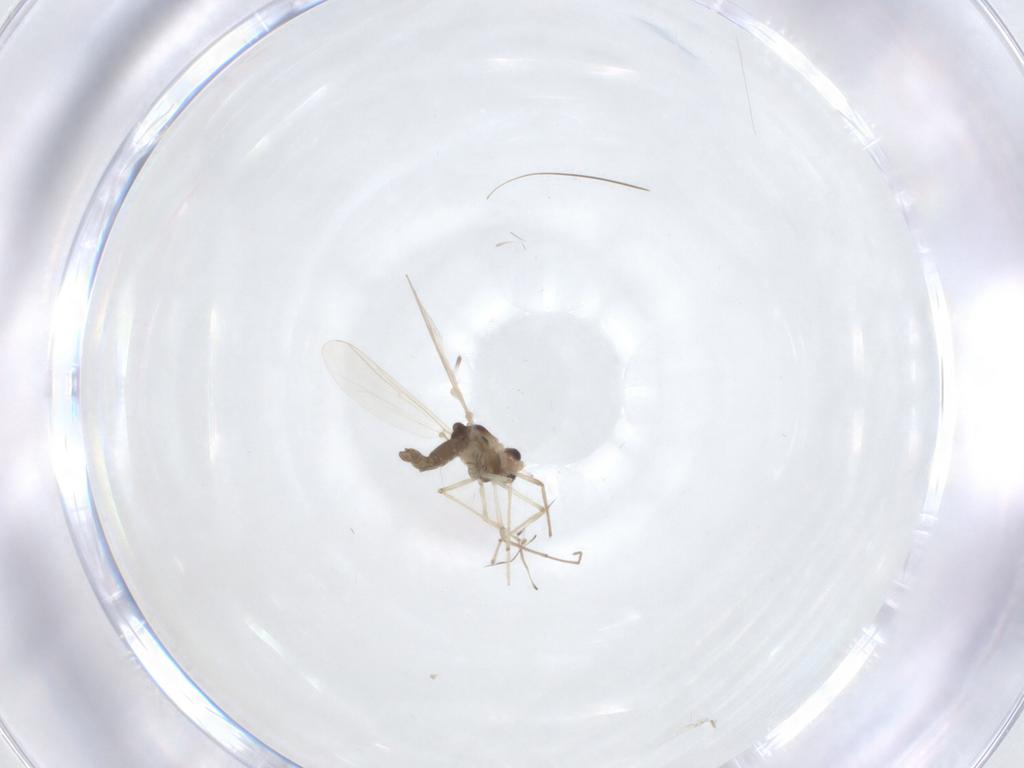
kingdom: Animalia
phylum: Arthropoda
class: Insecta
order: Diptera
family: Chironomidae
